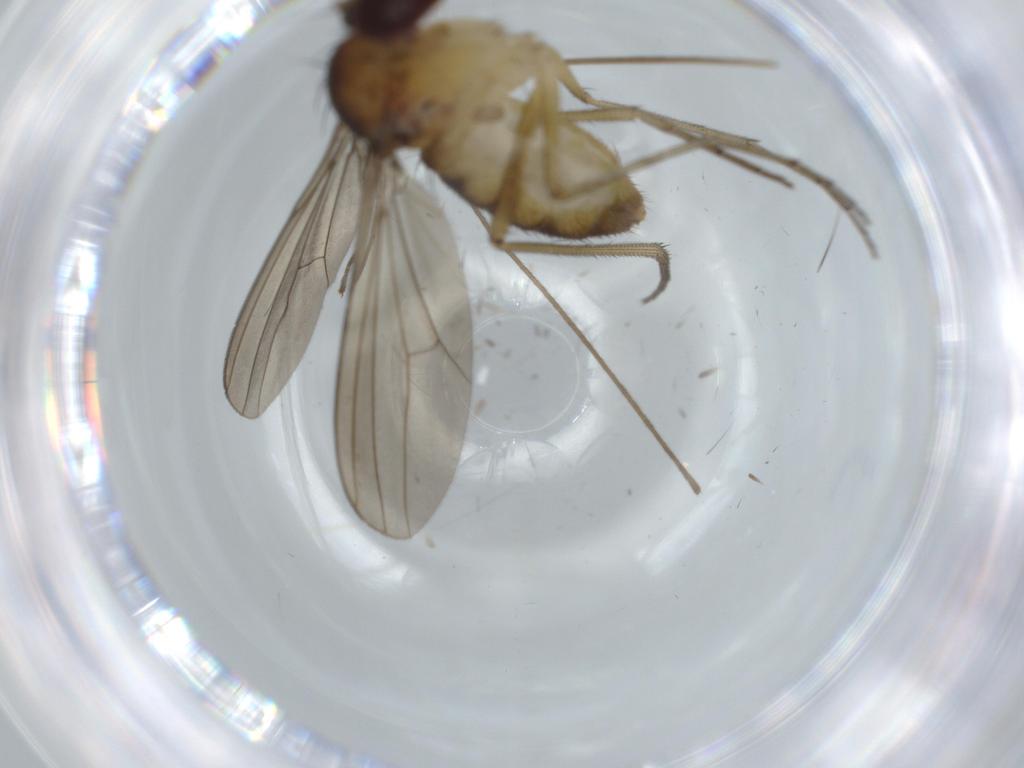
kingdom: Animalia
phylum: Arthropoda
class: Insecta
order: Diptera
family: Limoniidae
